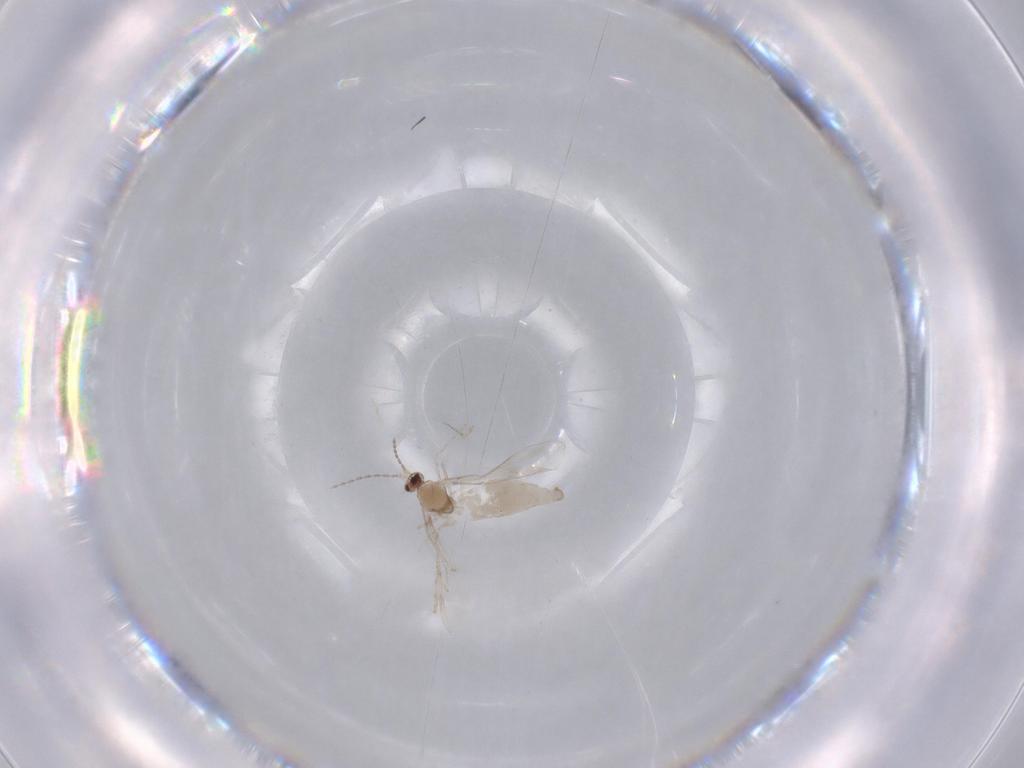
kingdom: Animalia
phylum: Arthropoda
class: Insecta
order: Diptera
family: Cecidomyiidae
